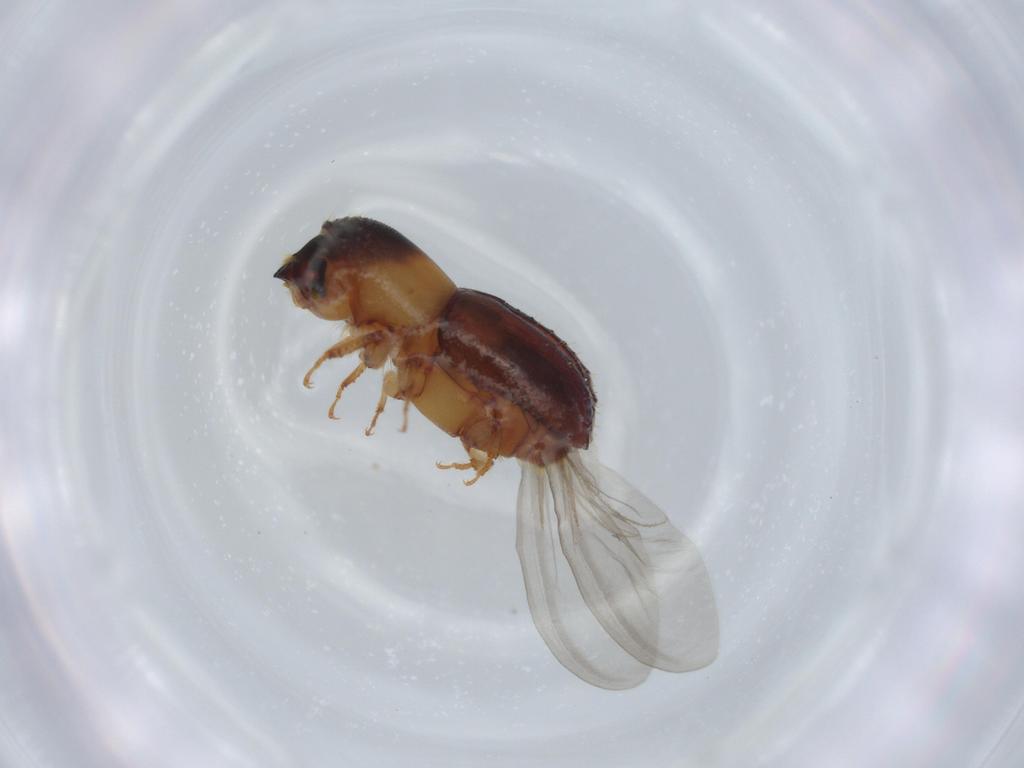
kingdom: Animalia
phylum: Arthropoda
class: Insecta
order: Coleoptera
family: Curculionidae
